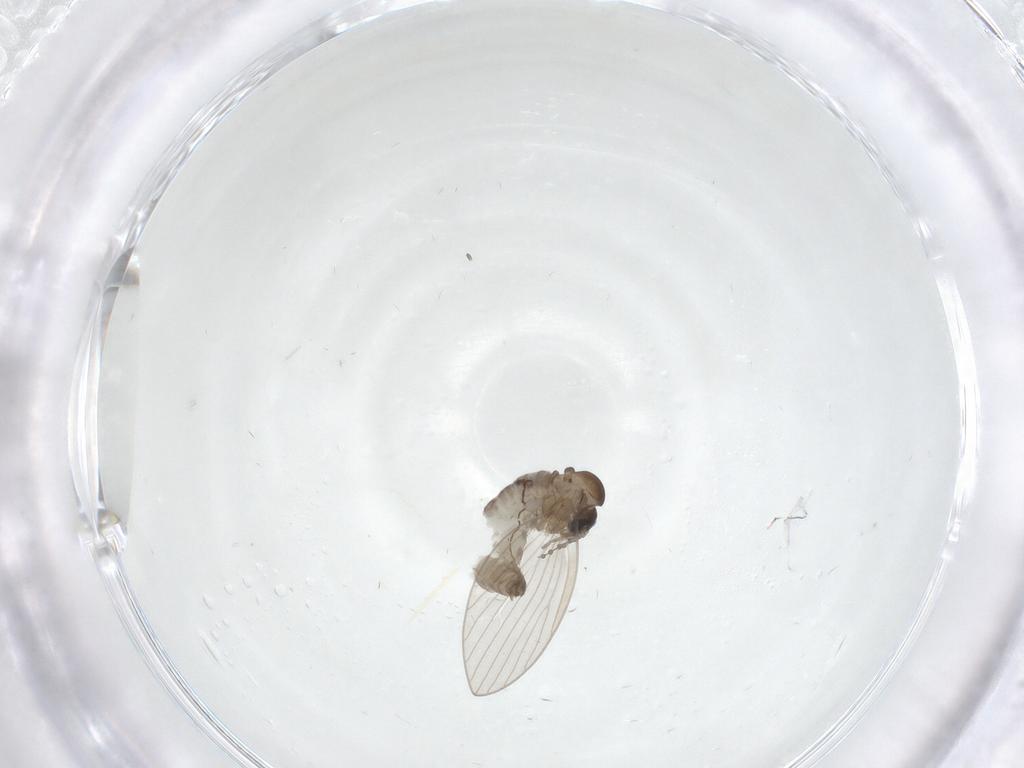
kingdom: Animalia
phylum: Arthropoda
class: Insecta
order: Diptera
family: Psychodidae
